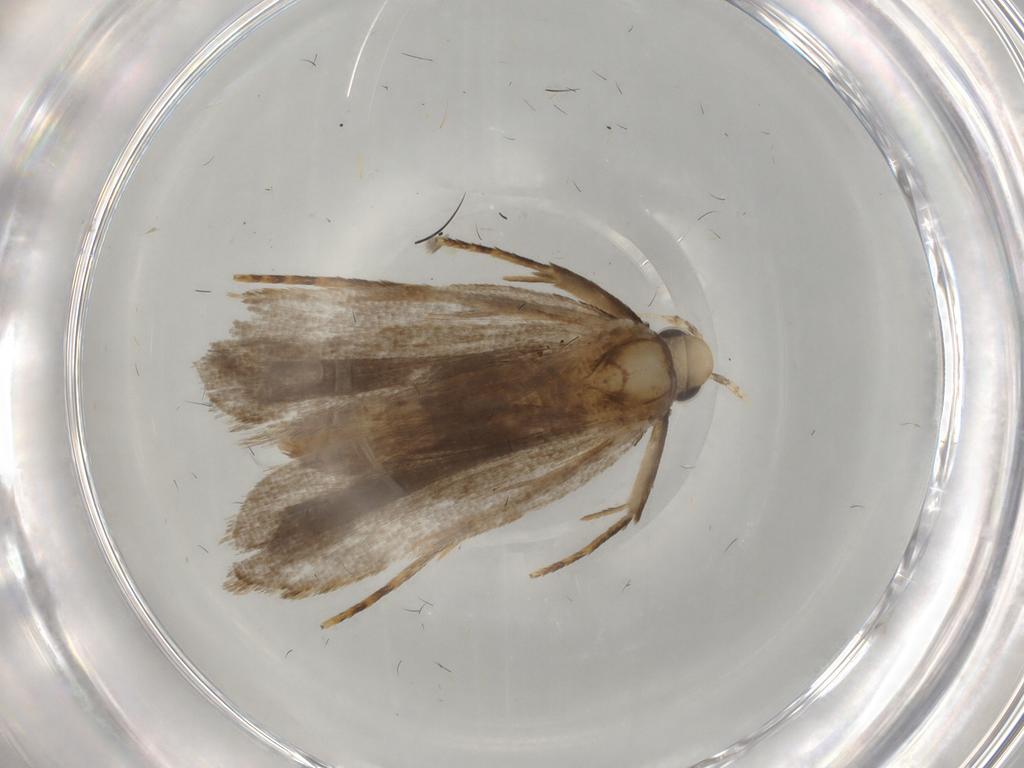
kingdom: Animalia
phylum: Arthropoda
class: Insecta
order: Lepidoptera
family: Gelechiidae
